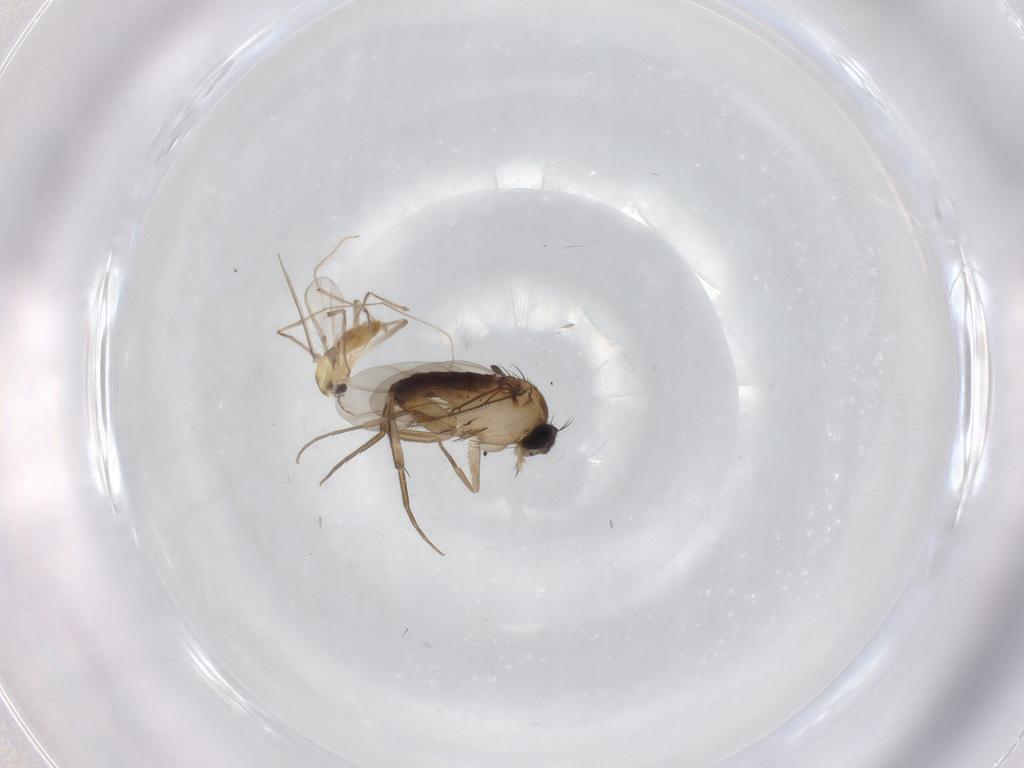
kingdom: Animalia
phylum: Arthropoda
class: Insecta
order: Diptera
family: Phoridae
